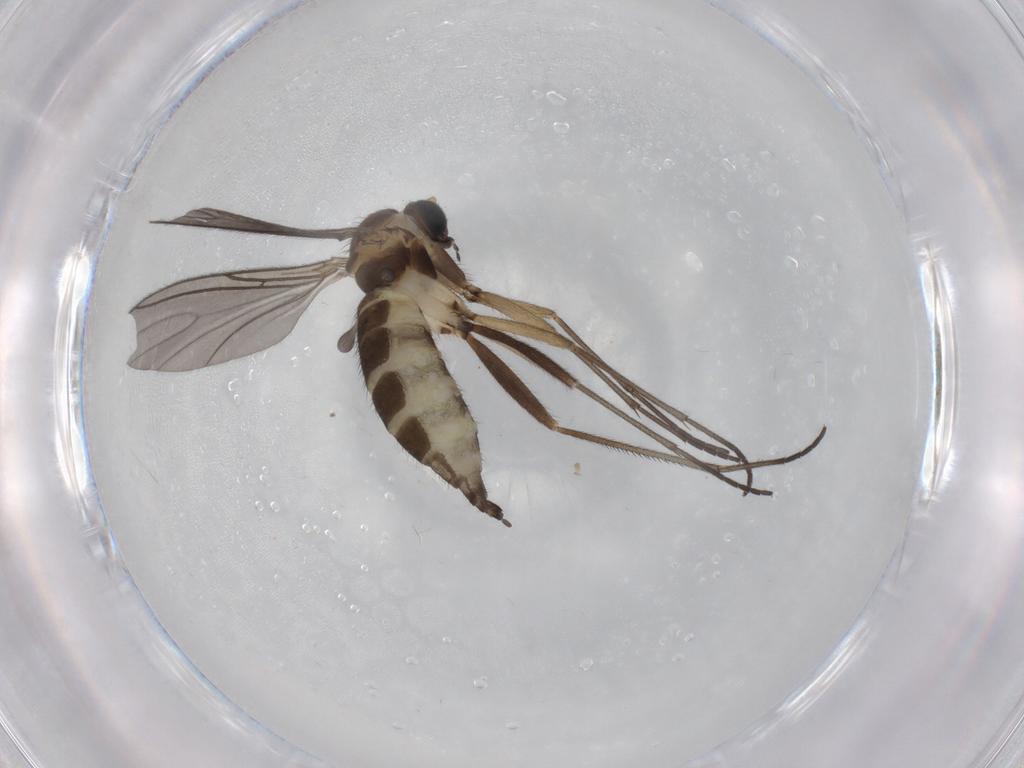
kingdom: Animalia
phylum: Arthropoda
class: Insecta
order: Diptera
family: Sciaridae
